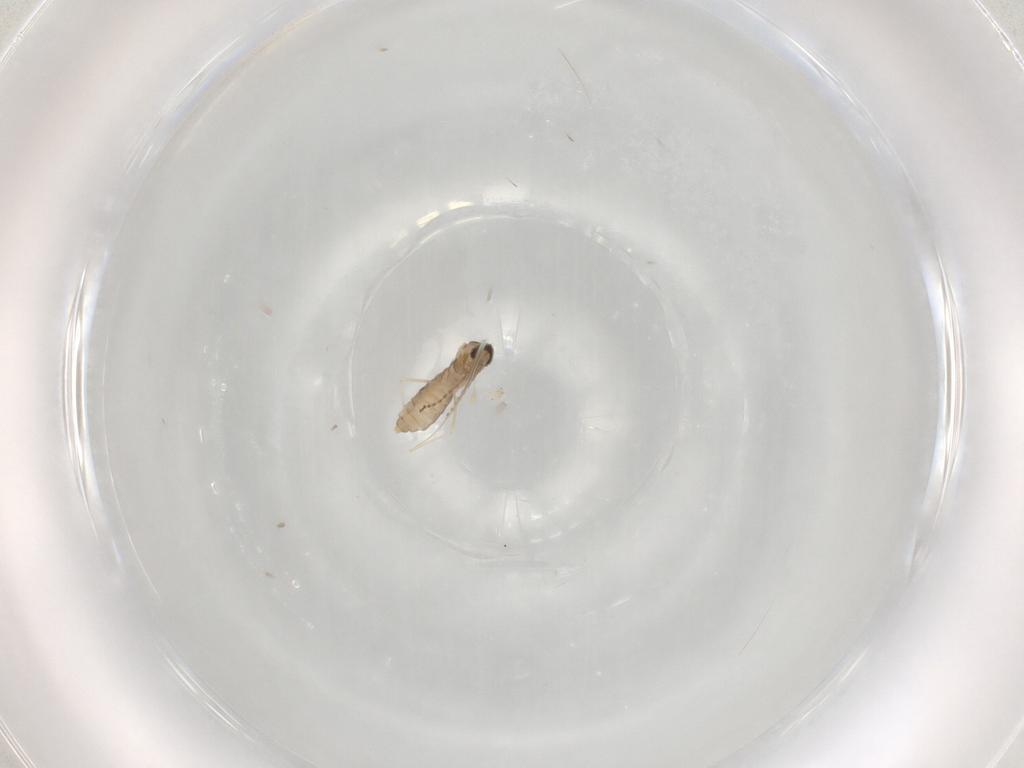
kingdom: Animalia
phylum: Arthropoda
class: Insecta
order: Diptera
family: Cecidomyiidae
